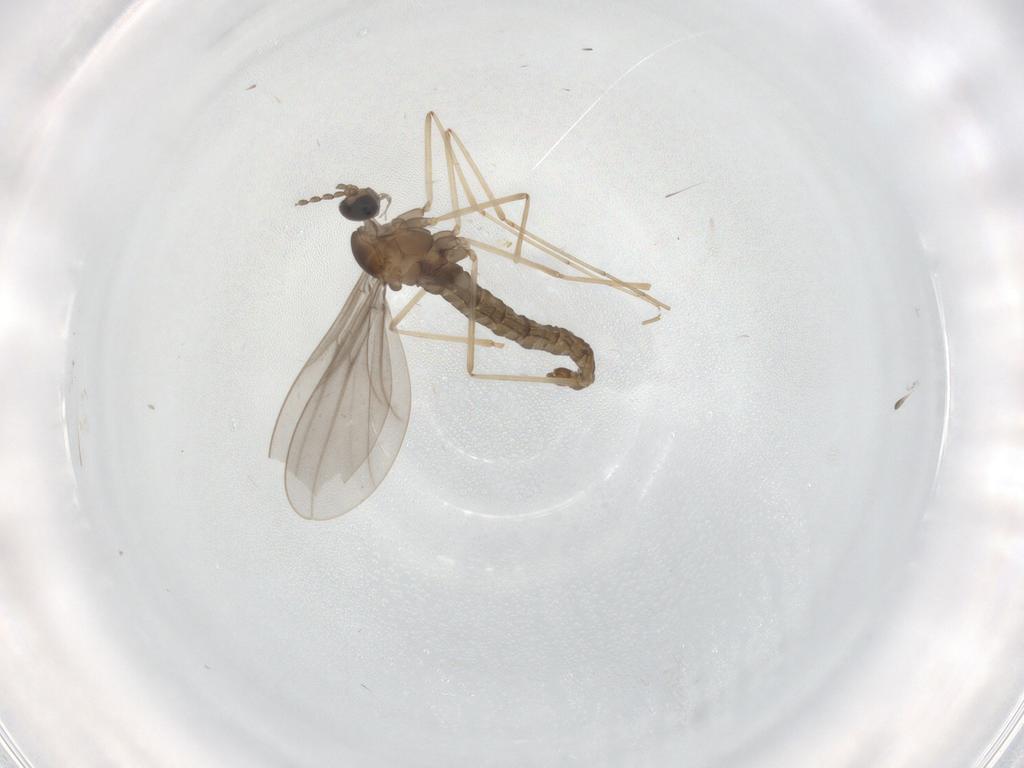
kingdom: Animalia
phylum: Arthropoda
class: Insecta
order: Diptera
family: Cecidomyiidae
